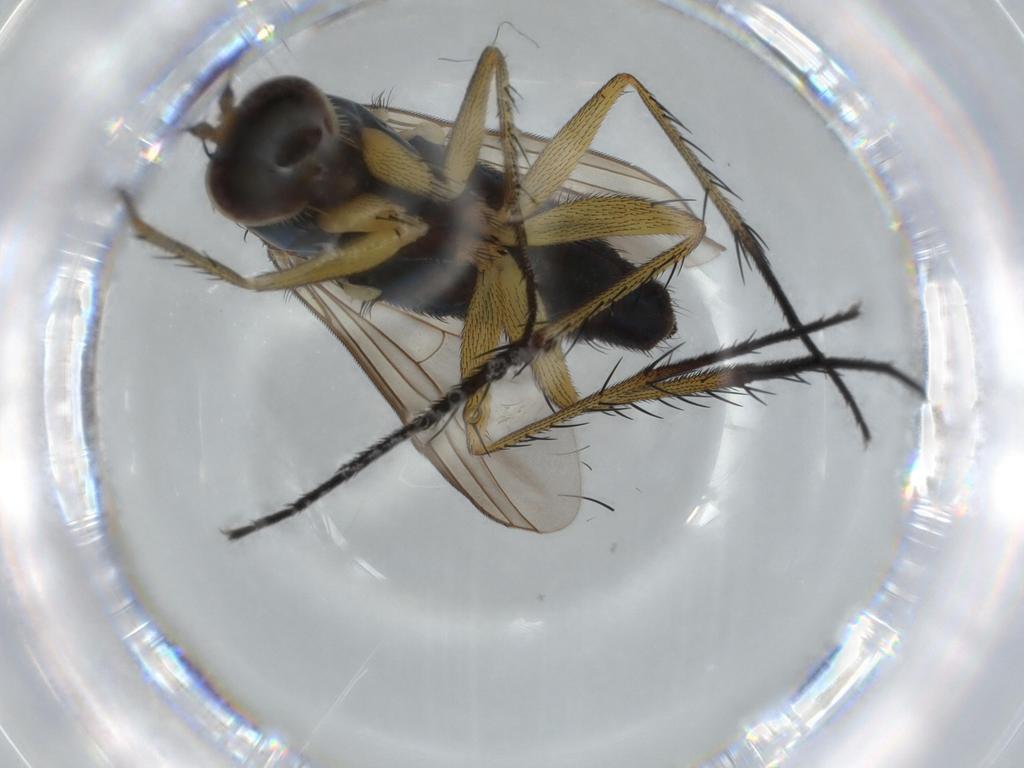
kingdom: Animalia
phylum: Arthropoda
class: Insecta
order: Diptera
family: Dolichopodidae
